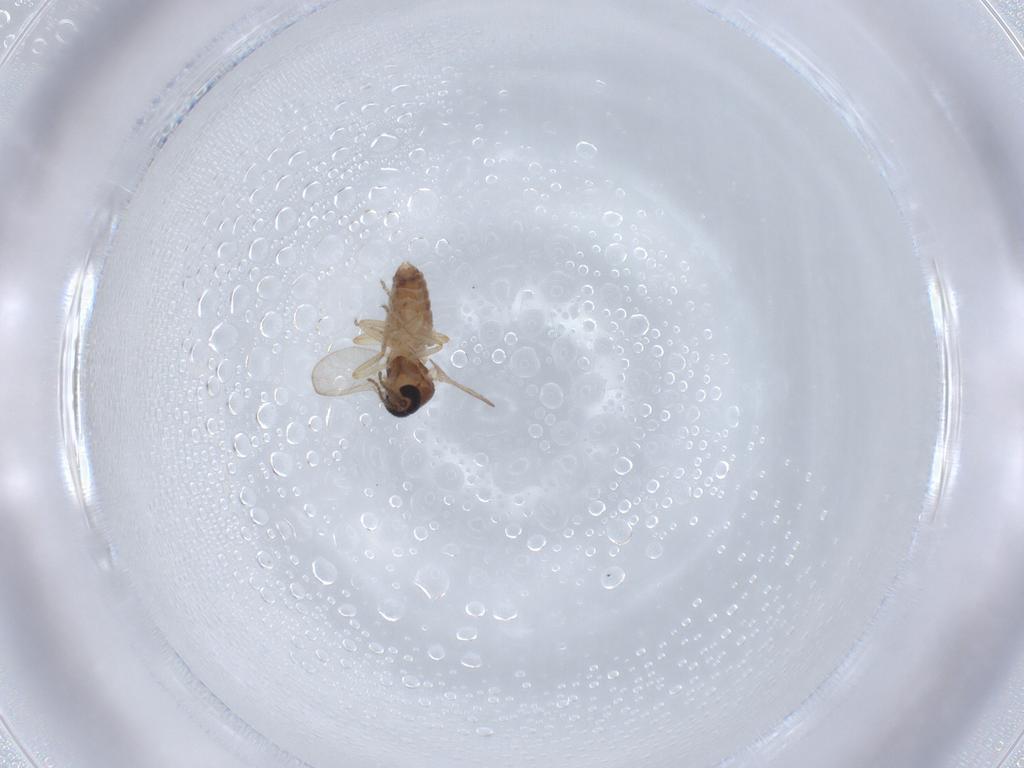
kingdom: Animalia
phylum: Arthropoda
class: Insecta
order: Diptera
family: Ceratopogonidae
